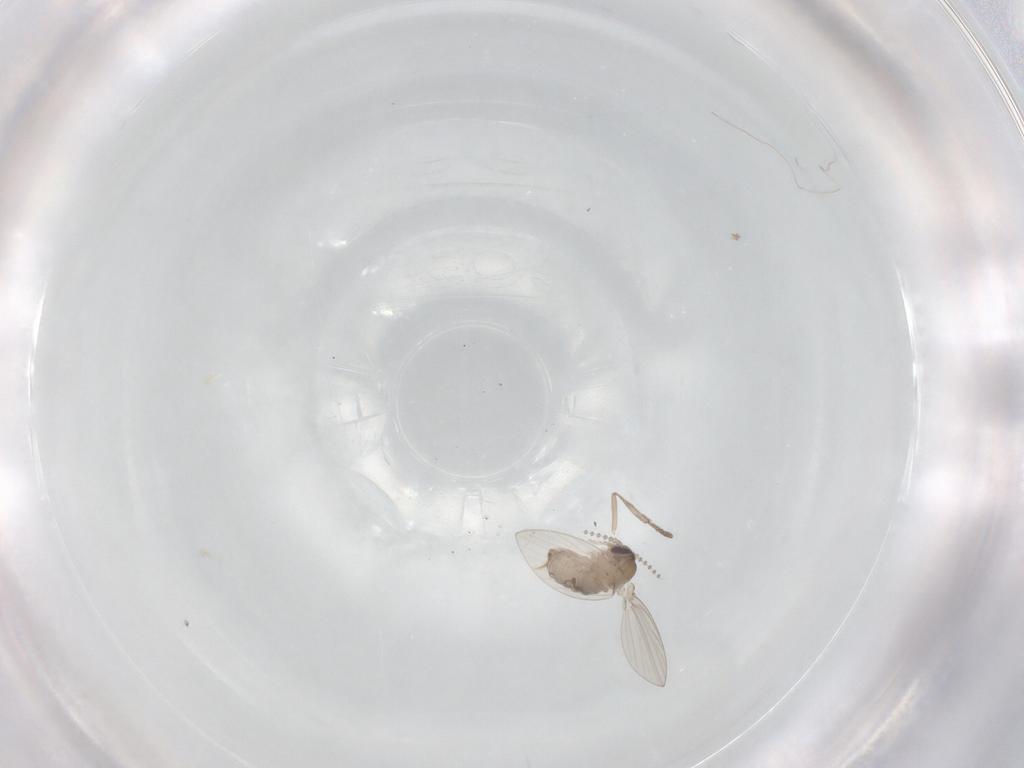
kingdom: Animalia
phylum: Arthropoda
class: Insecta
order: Diptera
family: Psychodidae
